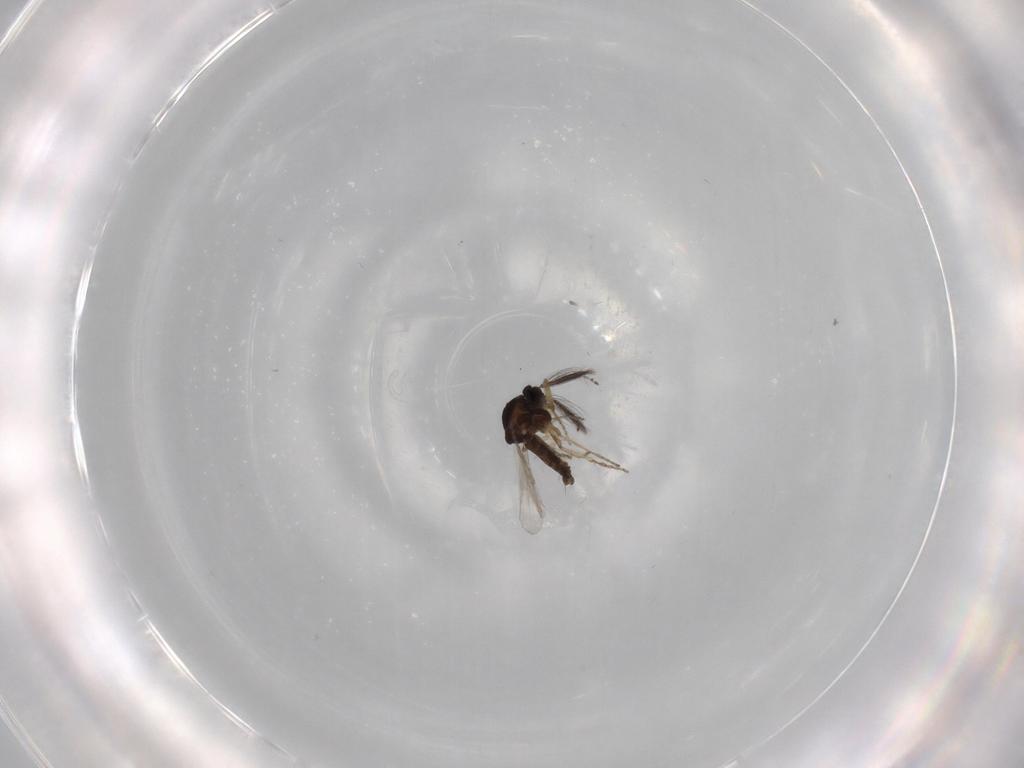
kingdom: Animalia
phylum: Arthropoda
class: Insecta
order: Diptera
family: Ceratopogonidae
